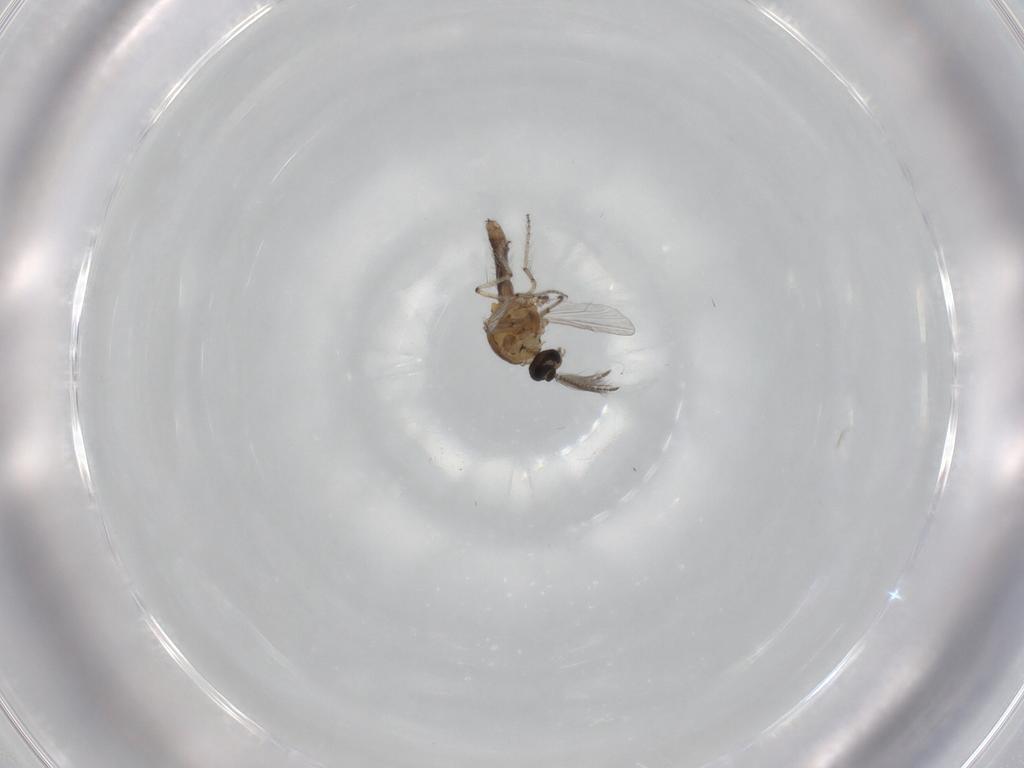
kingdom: Animalia
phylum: Arthropoda
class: Insecta
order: Diptera
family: Ceratopogonidae
